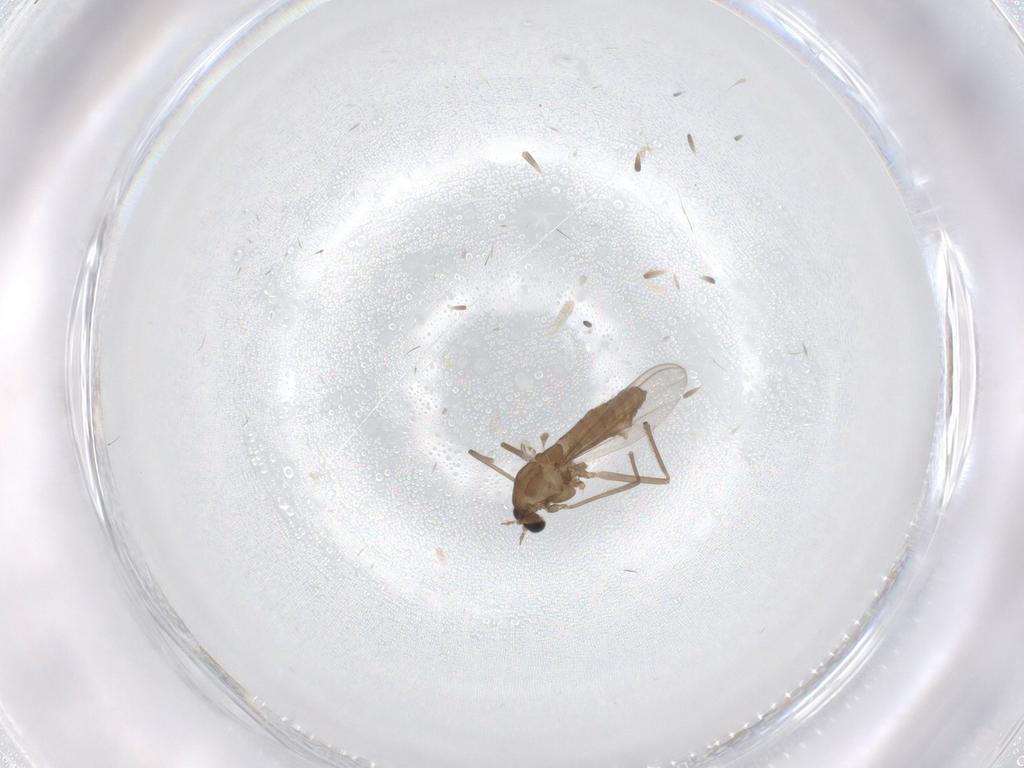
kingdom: Animalia
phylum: Arthropoda
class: Insecta
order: Diptera
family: Chironomidae
